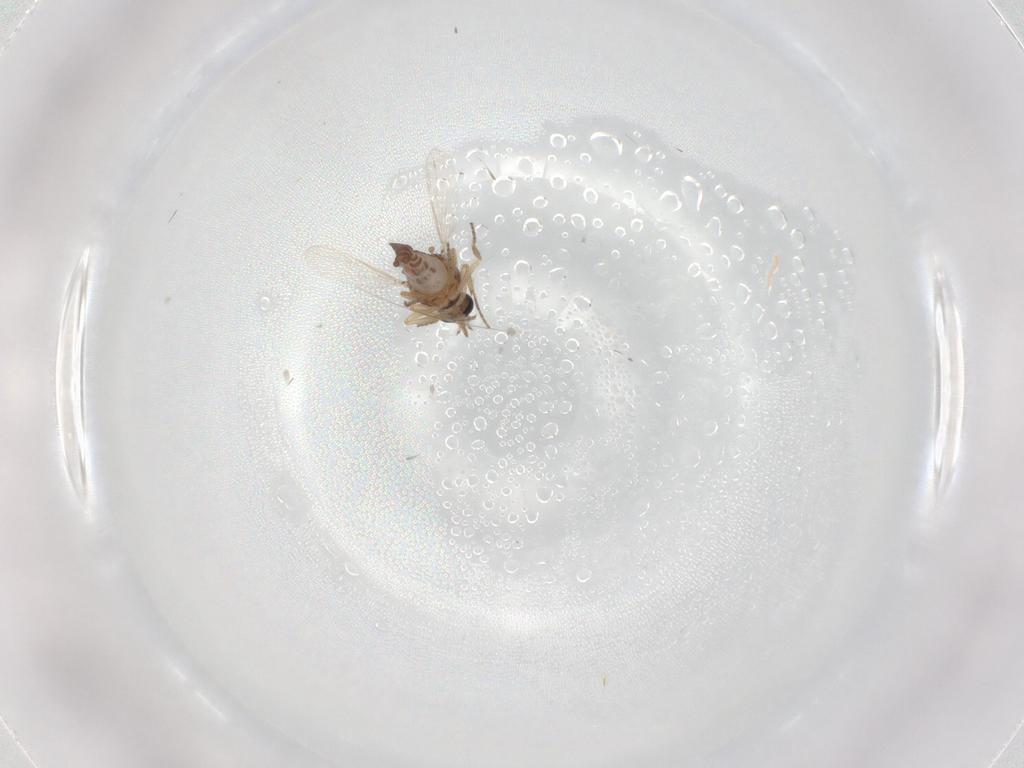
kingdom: Animalia
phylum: Arthropoda
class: Insecta
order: Diptera
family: Ceratopogonidae
